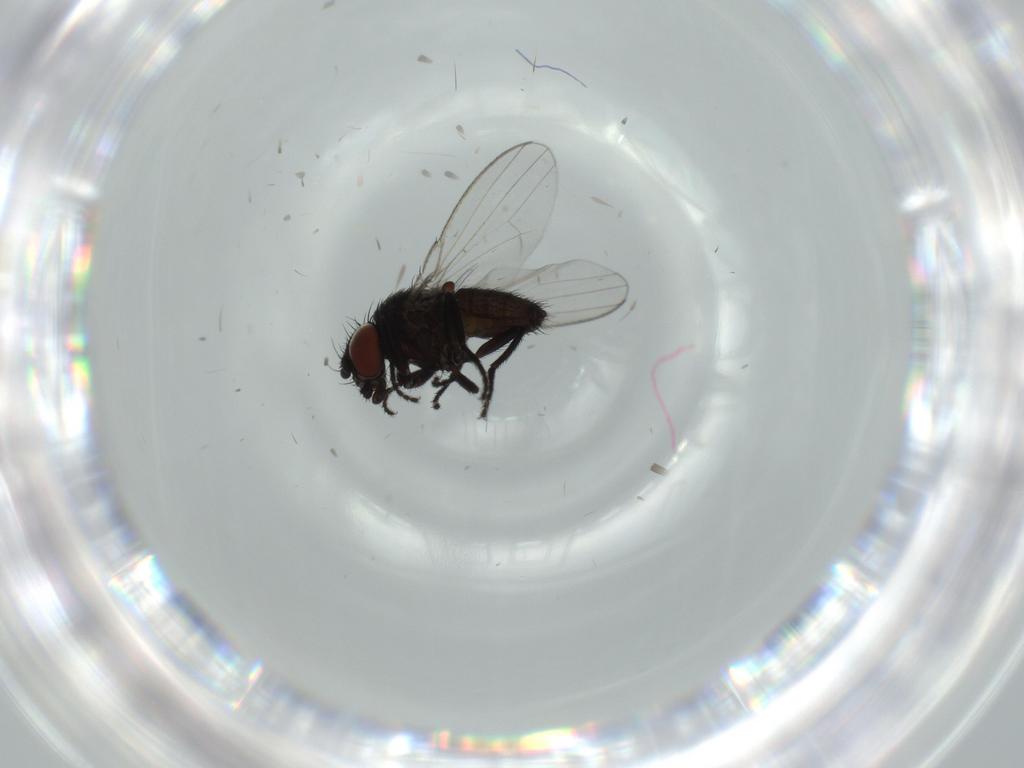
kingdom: Animalia
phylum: Arthropoda
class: Insecta
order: Diptera
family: Milichiidae
